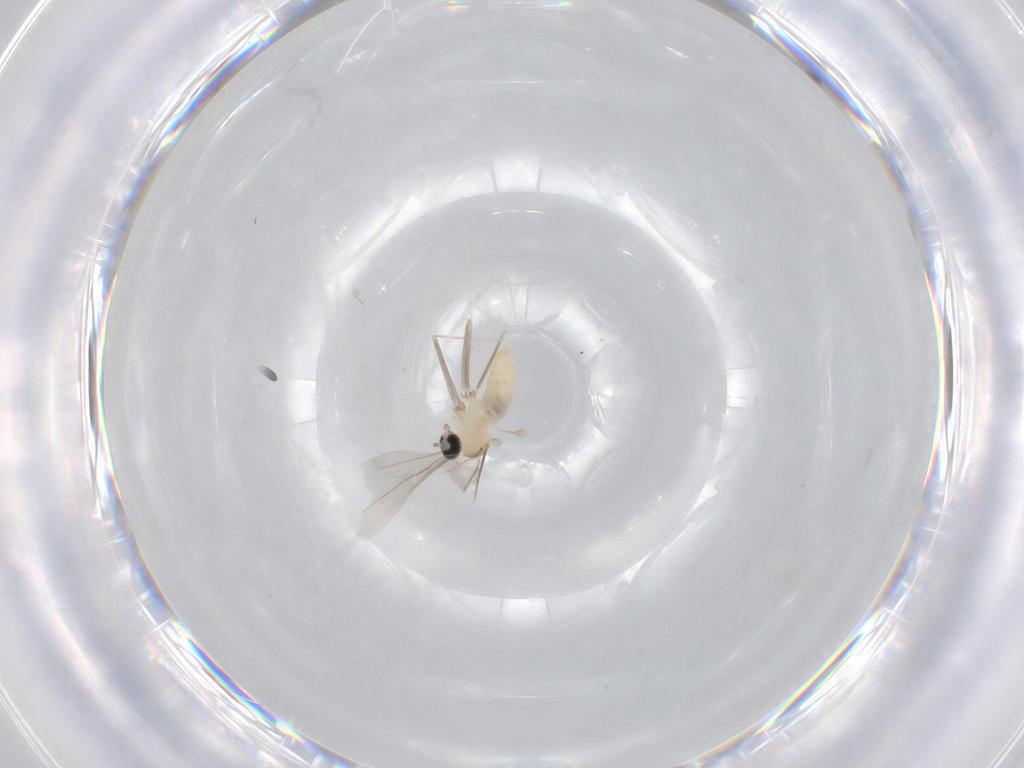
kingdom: Animalia
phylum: Arthropoda
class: Insecta
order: Diptera
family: Cecidomyiidae
